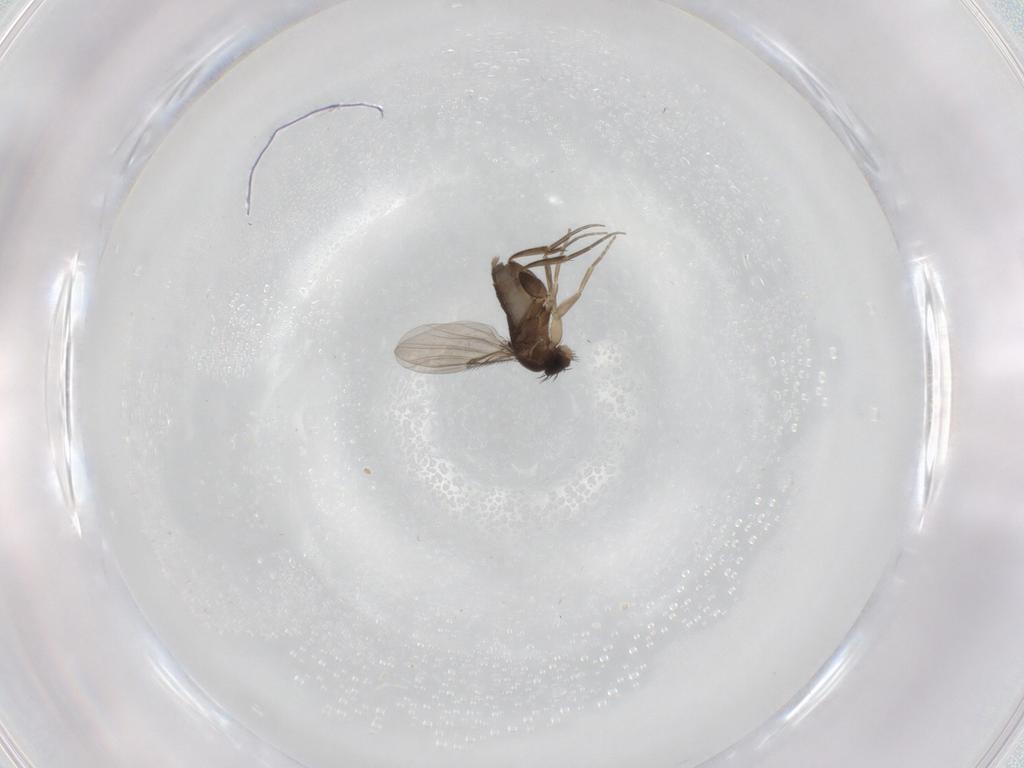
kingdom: Animalia
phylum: Arthropoda
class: Insecta
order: Diptera
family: Phoridae
